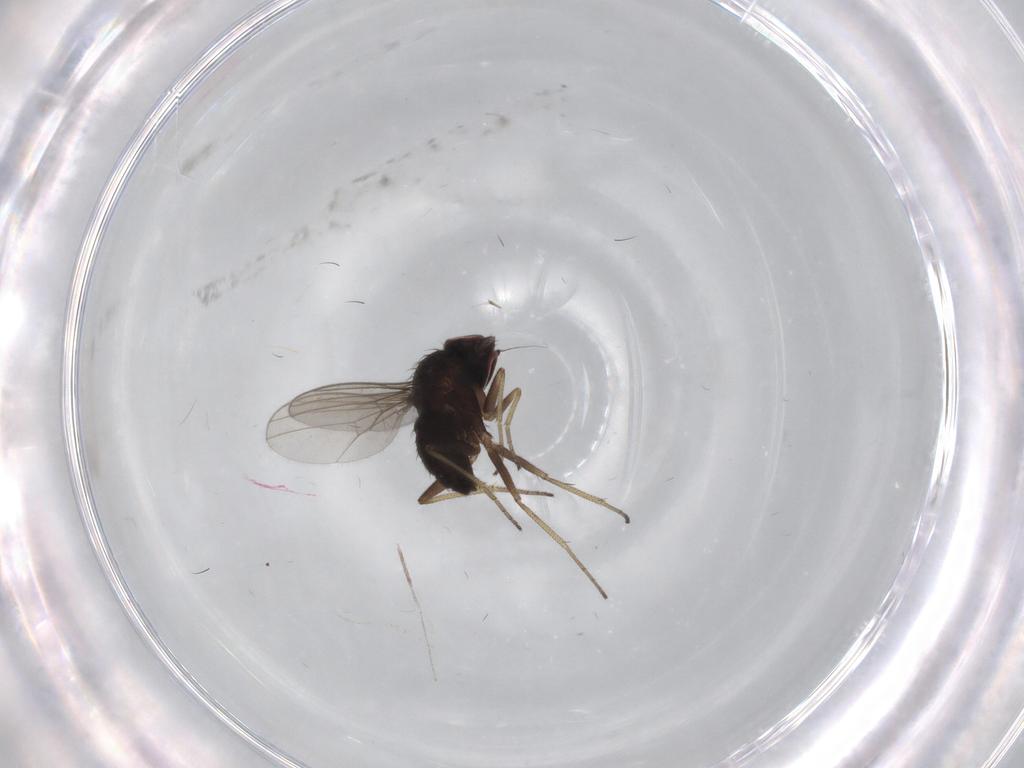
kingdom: Animalia
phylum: Arthropoda
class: Insecta
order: Diptera
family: Dolichopodidae
